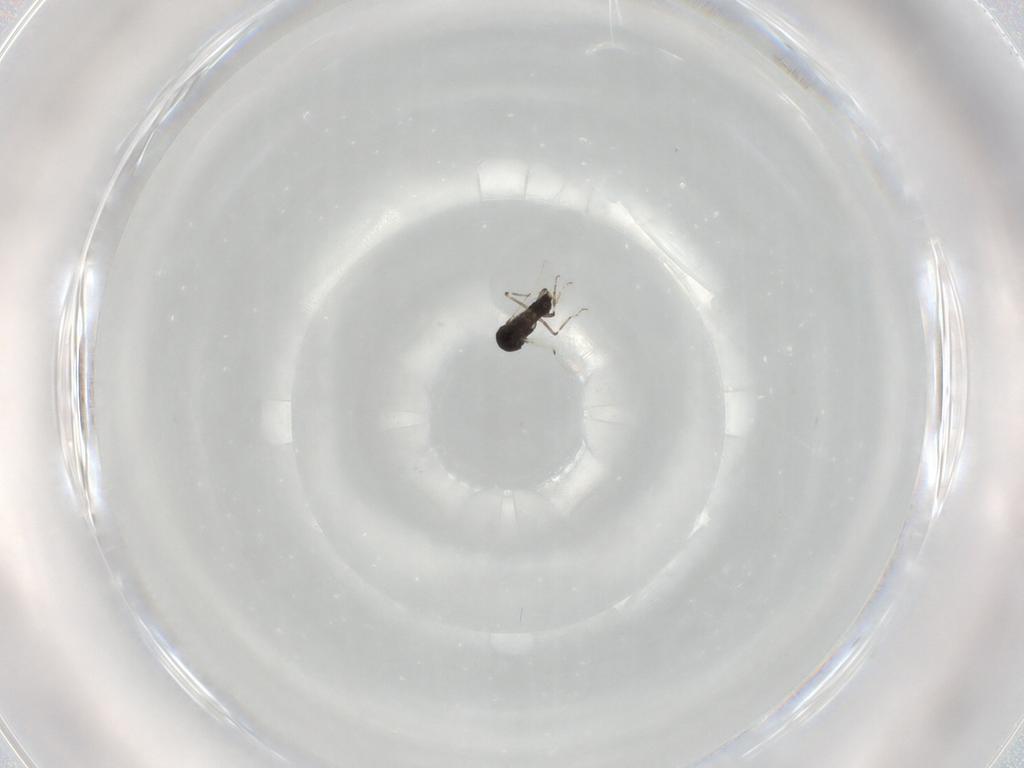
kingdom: Animalia
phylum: Arthropoda
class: Insecta
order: Diptera
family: Ceratopogonidae
